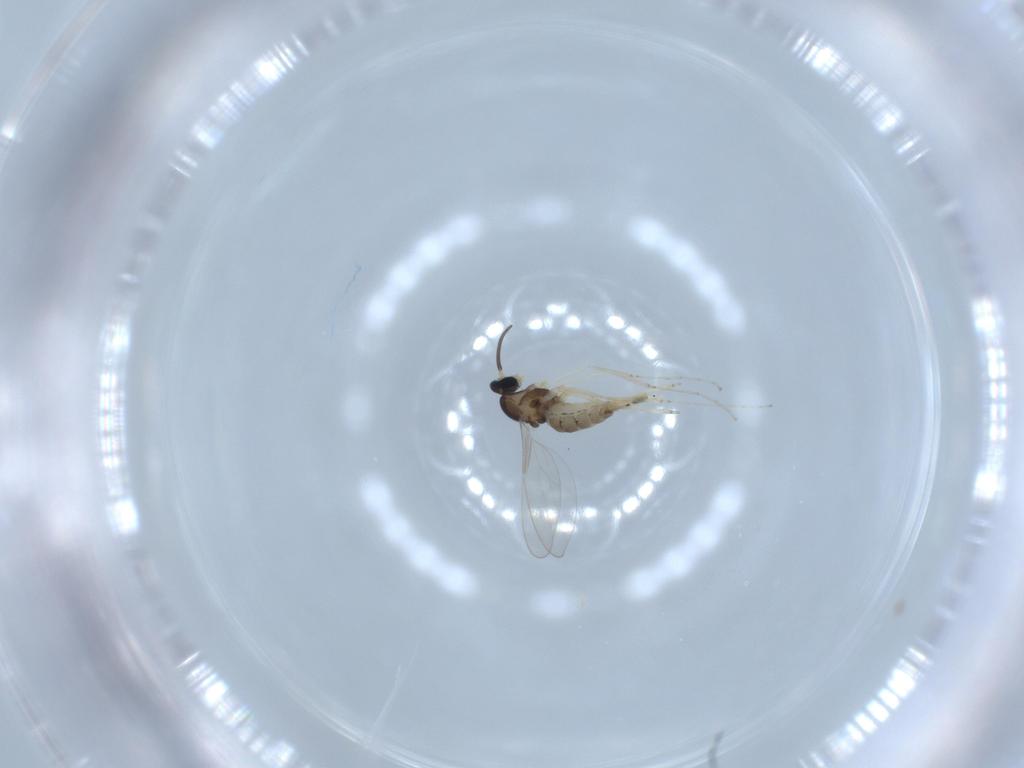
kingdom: Animalia
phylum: Arthropoda
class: Insecta
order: Diptera
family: Cecidomyiidae
